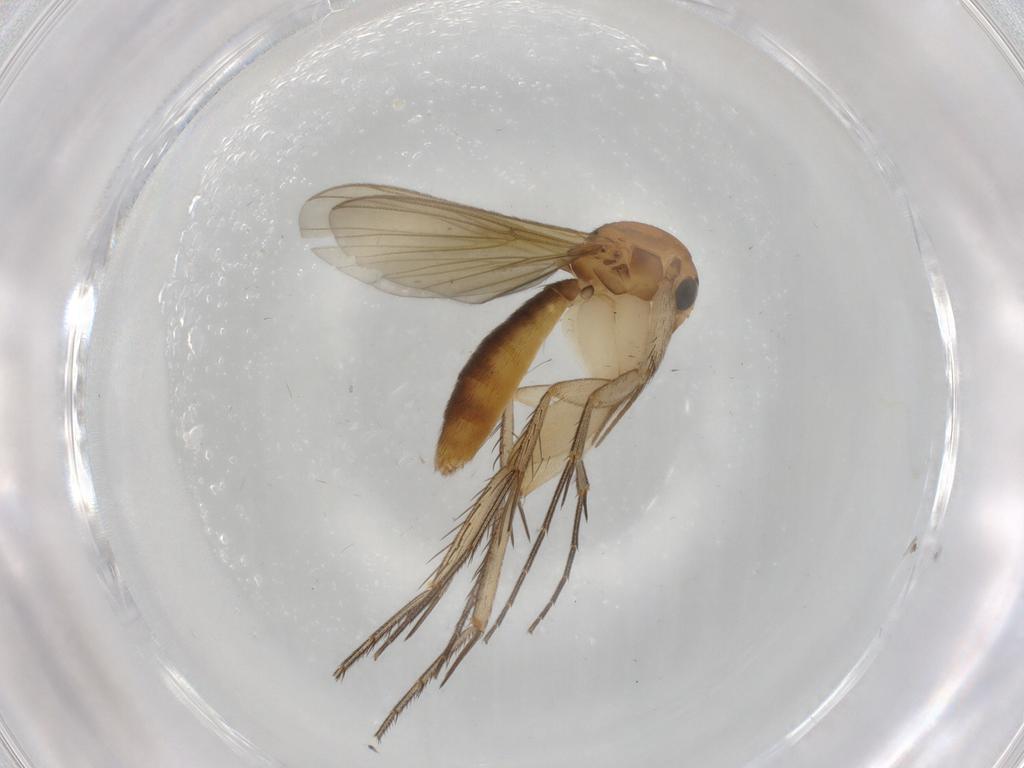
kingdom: Animalia
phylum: Arthropoda
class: Insecta
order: Diptera
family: Mycetophilidae
